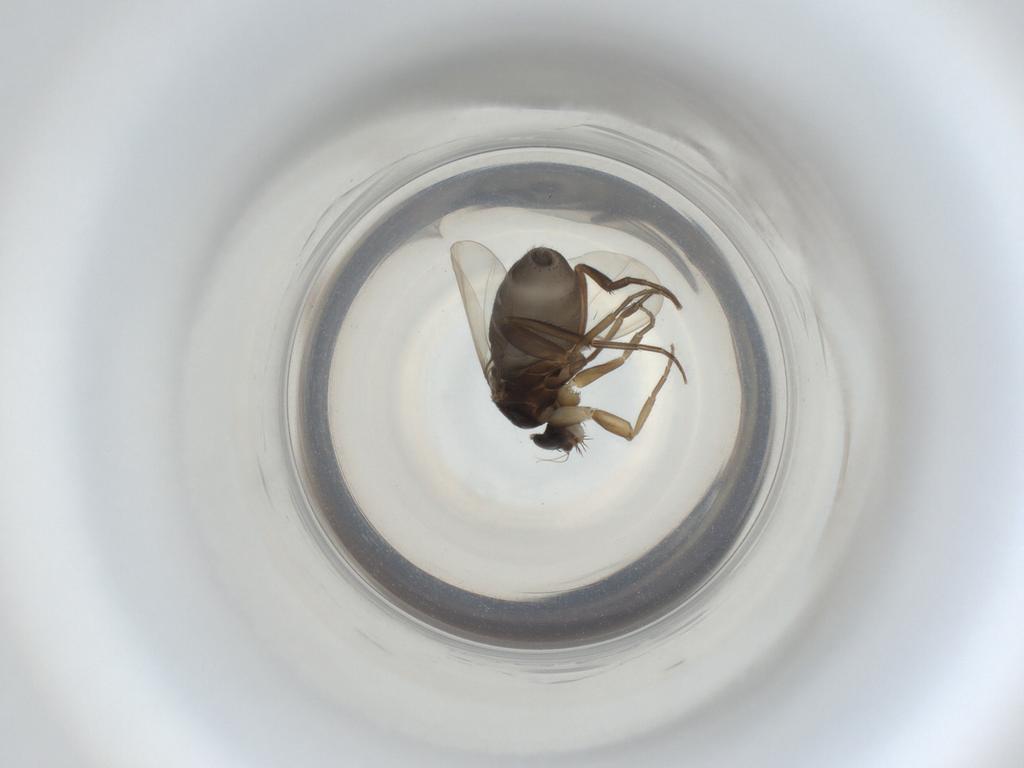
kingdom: Animalia
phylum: Arthropoda
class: Insecta
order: Diptera
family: Phoridae
